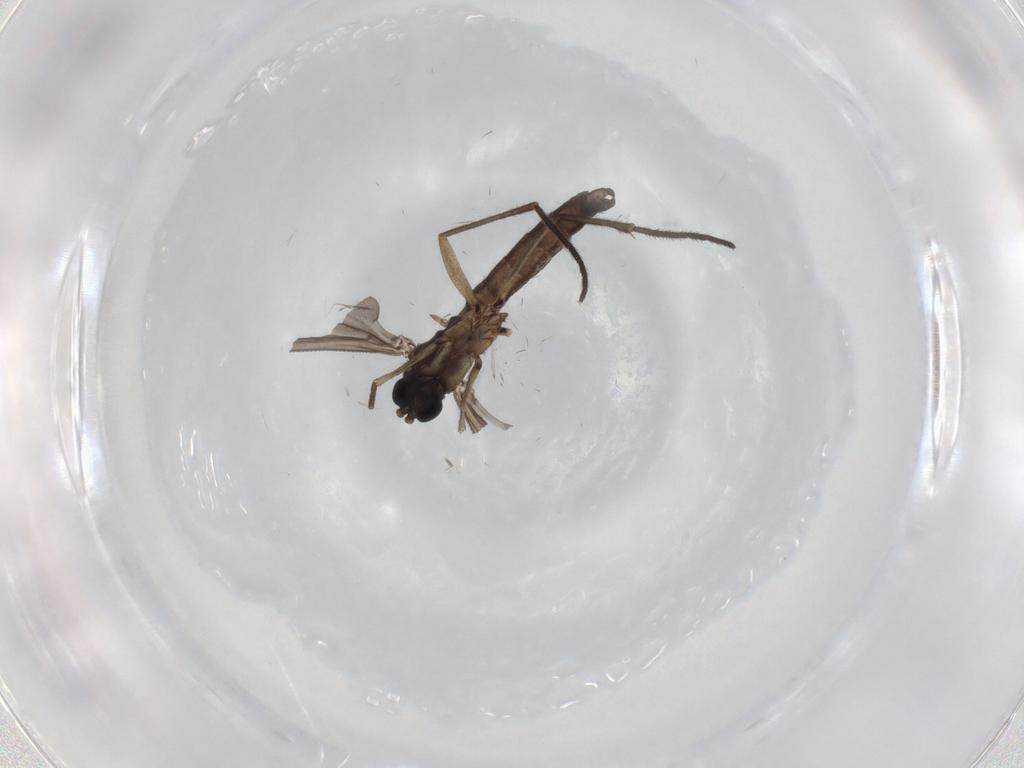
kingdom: Animalia
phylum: Arthropoda
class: Insecta
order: Diptera
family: Sciaridae
